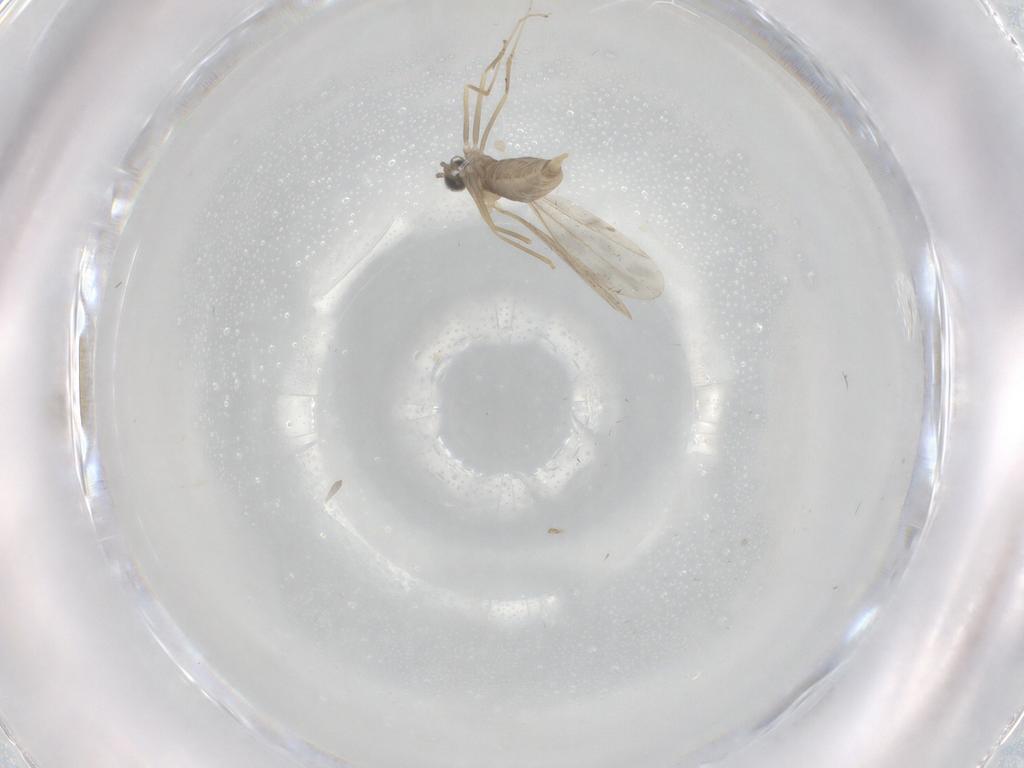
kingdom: Animalia
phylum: Arthropoda
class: Insecta
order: Diptera
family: Cecidomyiidae
